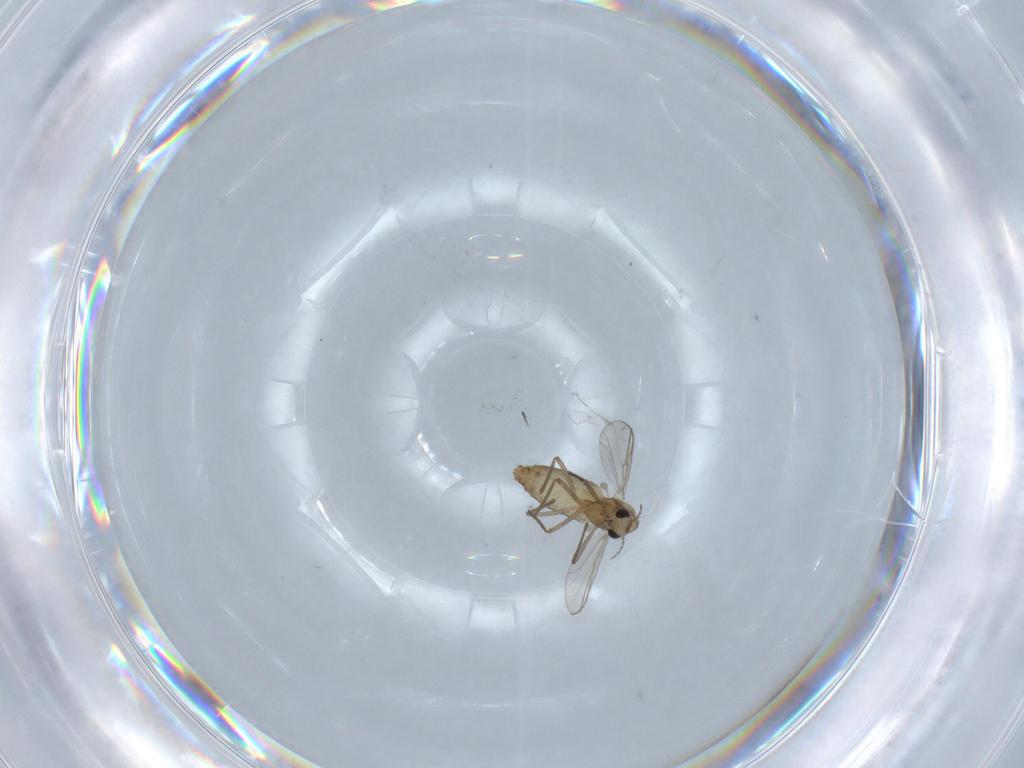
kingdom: Animalia
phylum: Arthropoda
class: Insecta
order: Diptera
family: Chironomidae
